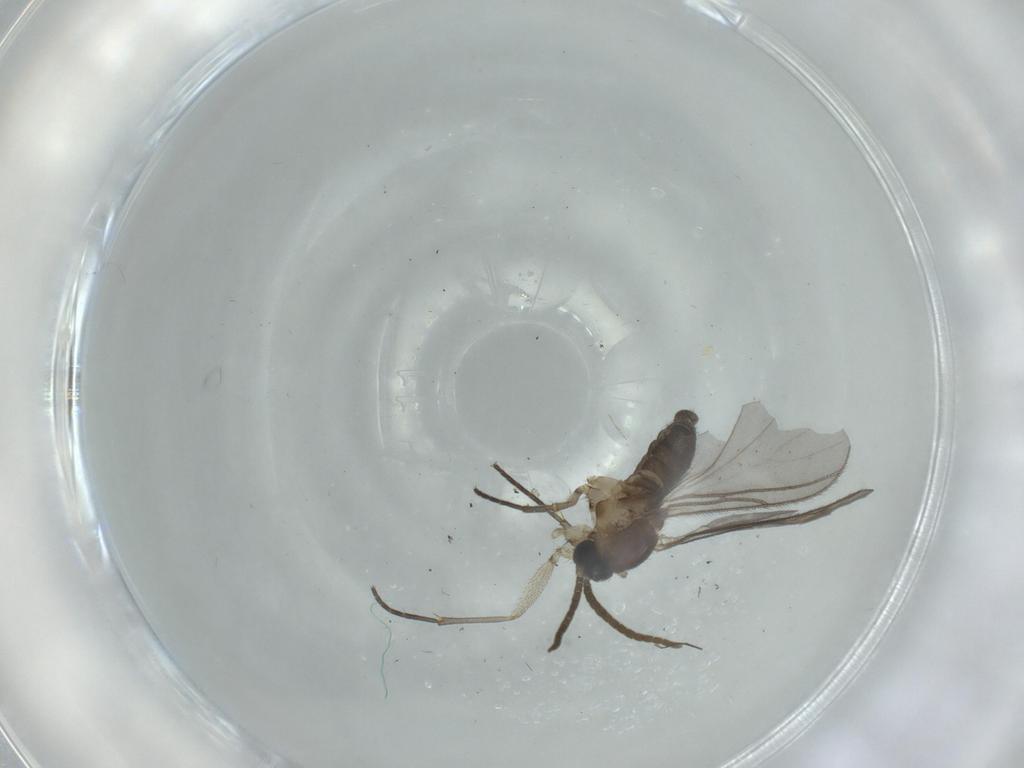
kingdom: Animalia
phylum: Arthropoda
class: Insecta
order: Diptera
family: Sciaridae
